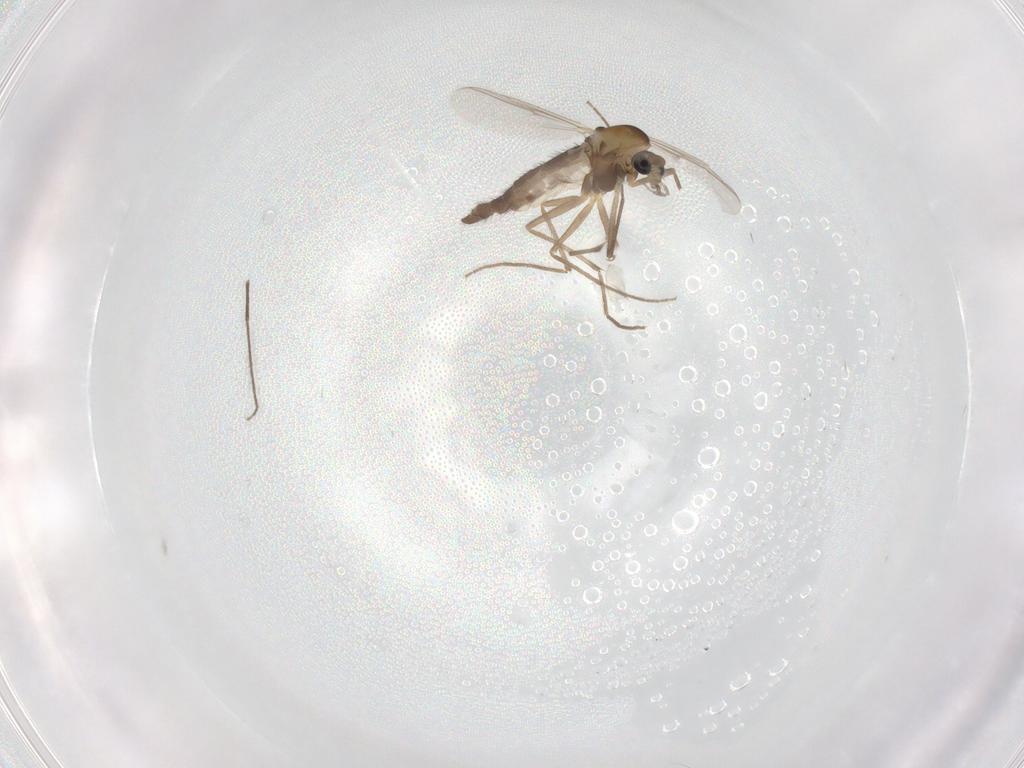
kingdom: Animalia
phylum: Arthropoda
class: Insecta
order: Diptera
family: Chironomidae
